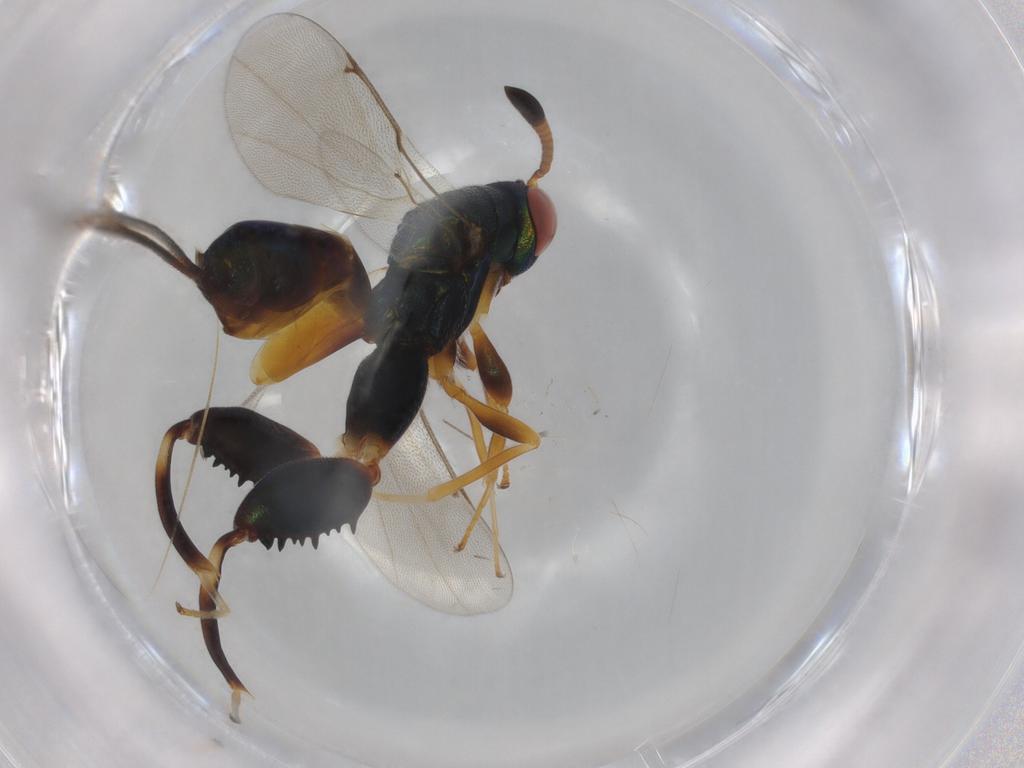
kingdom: Animalia
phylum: Arthropoda
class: Insecta
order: Hymenoptera
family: Torymidae
